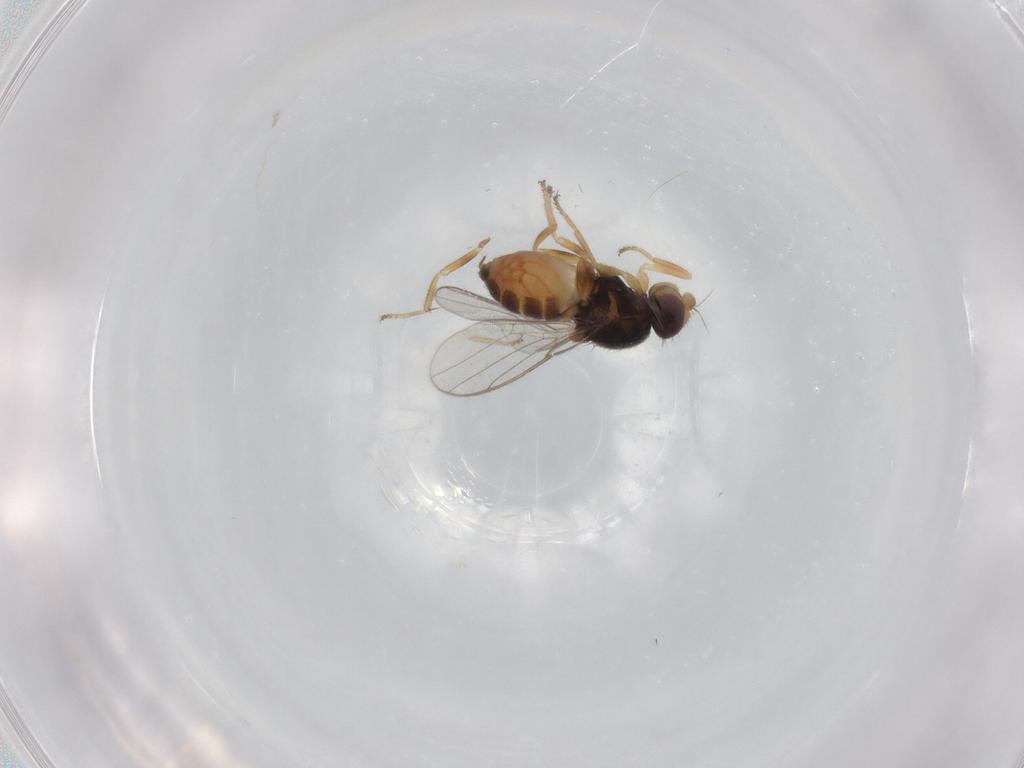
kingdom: Animalia
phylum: Arthropoda
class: Insecta
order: Diptera
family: Chloropidae
